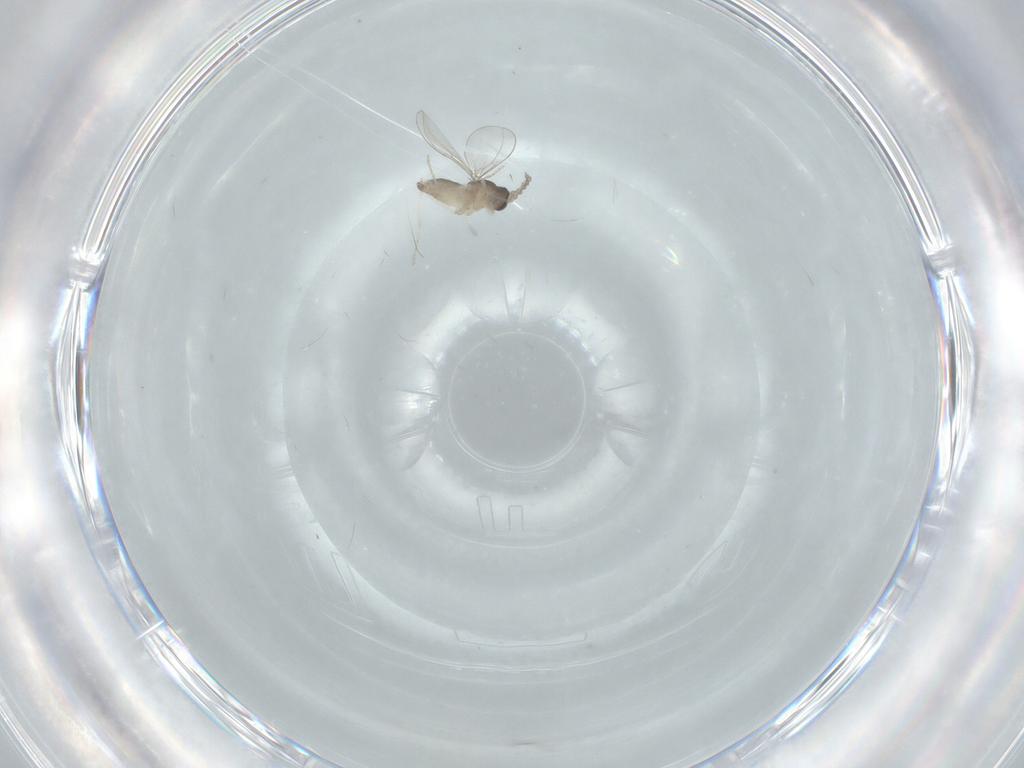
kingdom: Animalia
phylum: Arthropoda
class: Insecta
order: Diptera
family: Cecidomyiidae
